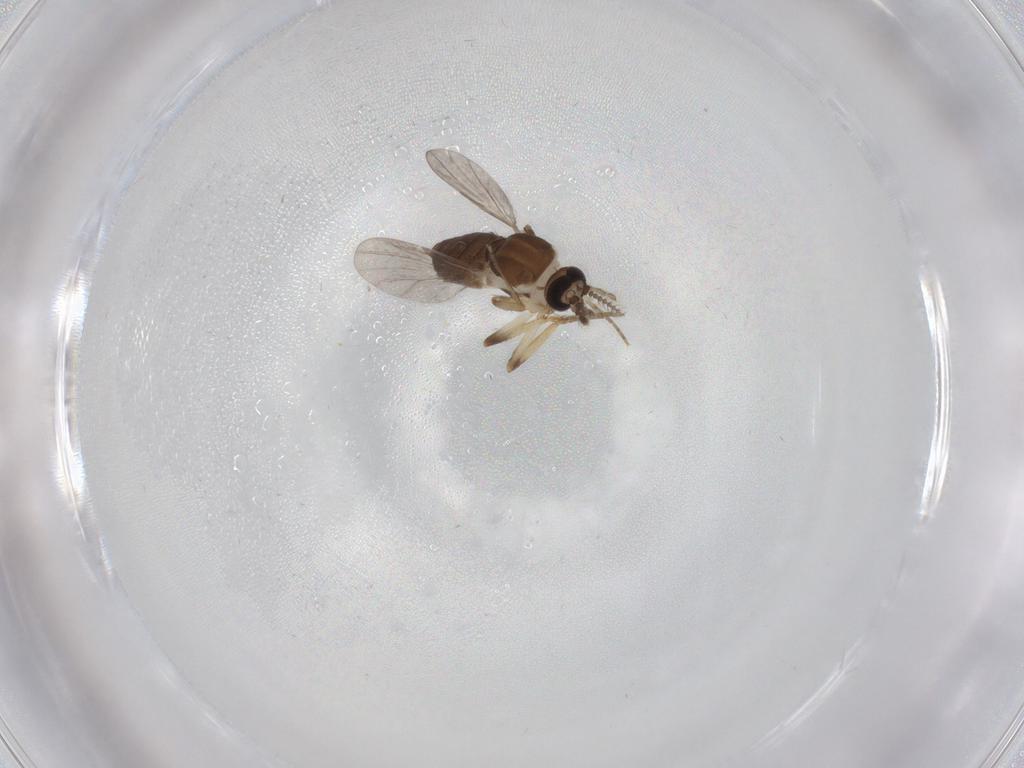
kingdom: Animalia
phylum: Arthropoda
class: Insecta
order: Diptera
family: Ceratopogonidae
